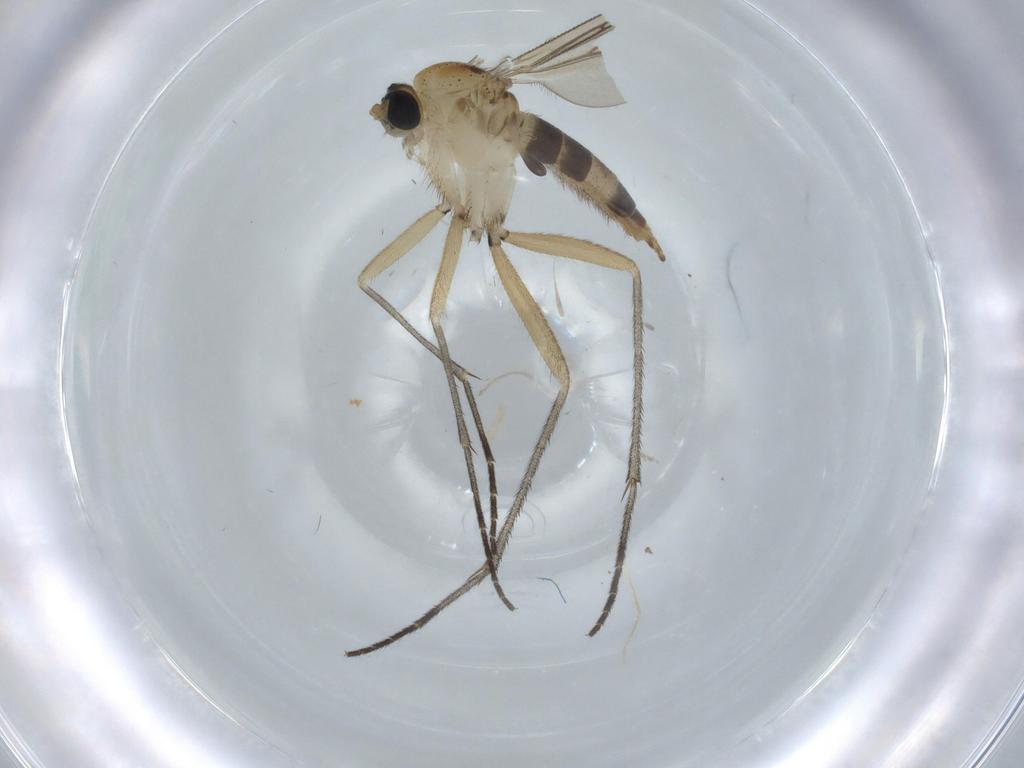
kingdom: Animalia
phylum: Arthropoda
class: Insecta
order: Diptera
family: Sciaridae
